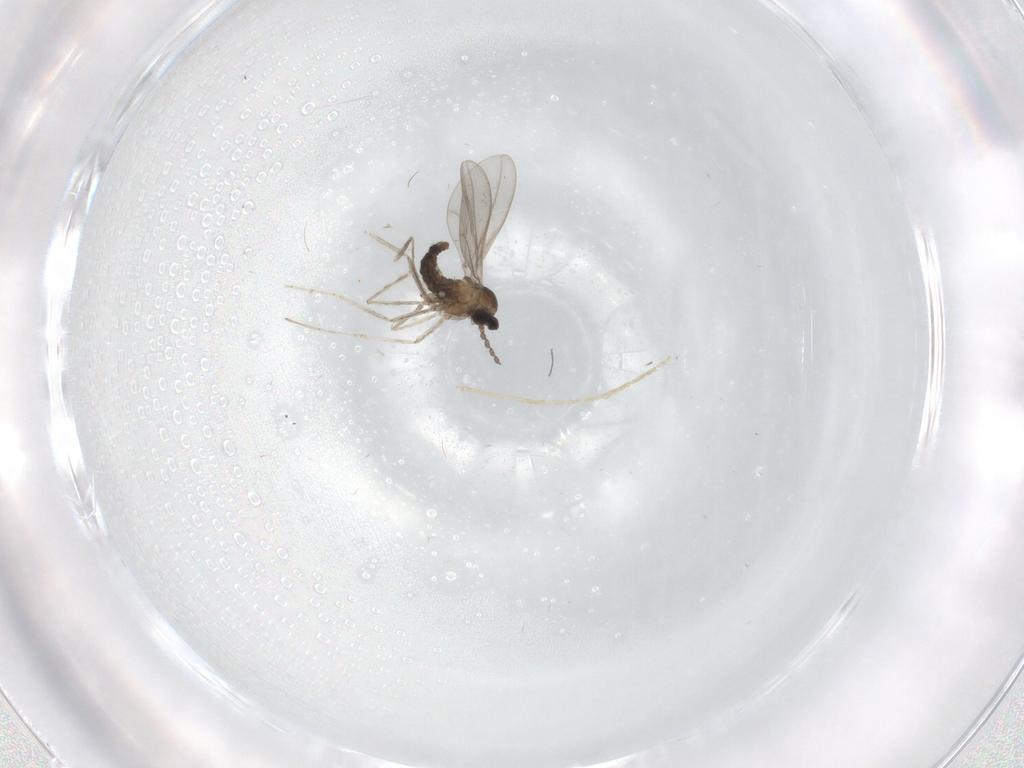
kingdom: Animalia
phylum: Arthropoda
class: Insecta
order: Diptera
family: Chironomidae
